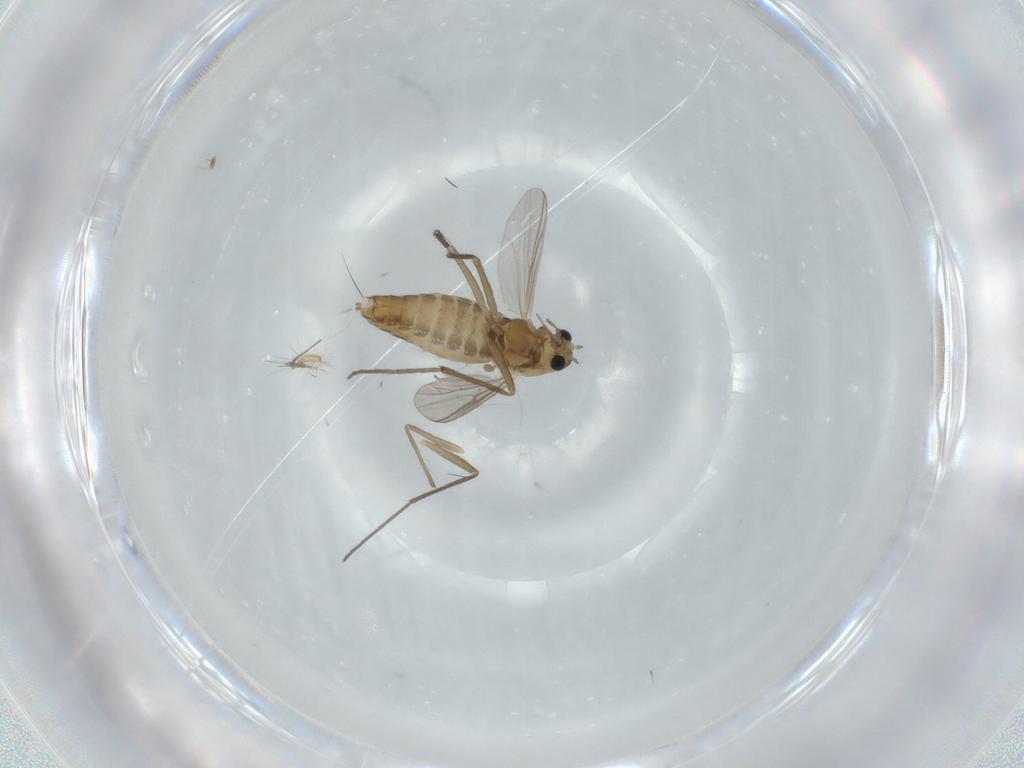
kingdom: Animalia
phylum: Arthropoda
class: Insecta
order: Diptera
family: Chironomidae
